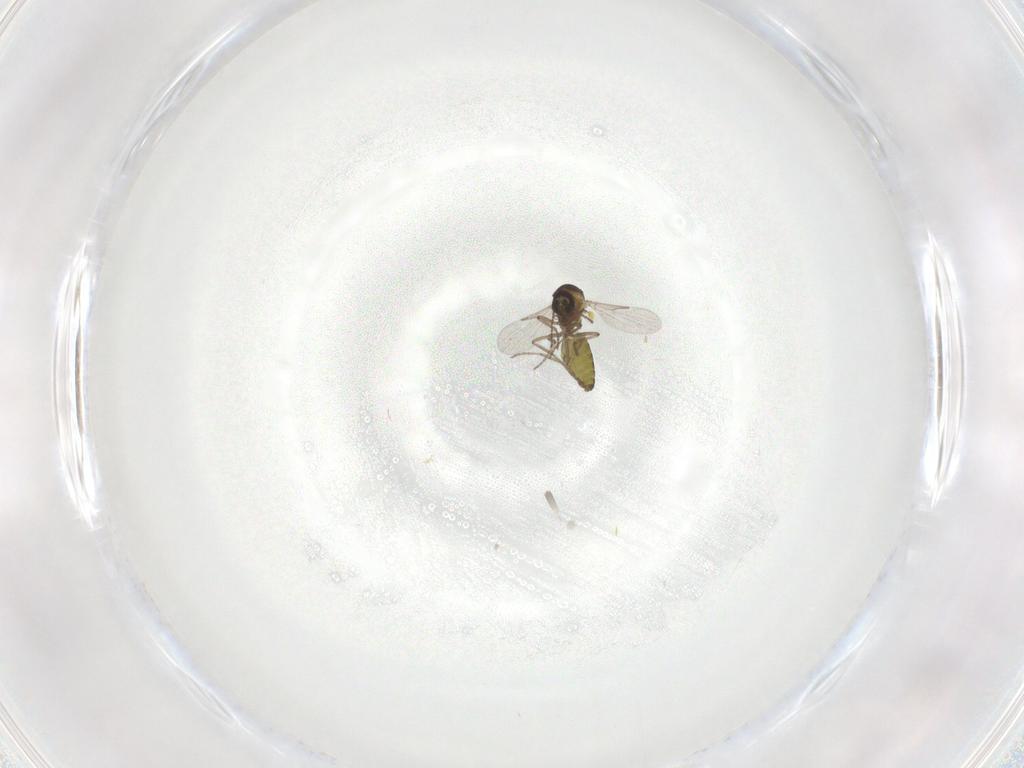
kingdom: Animalia
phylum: Arthropoda
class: Insecta
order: Diptera
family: Ceratopogonidae
